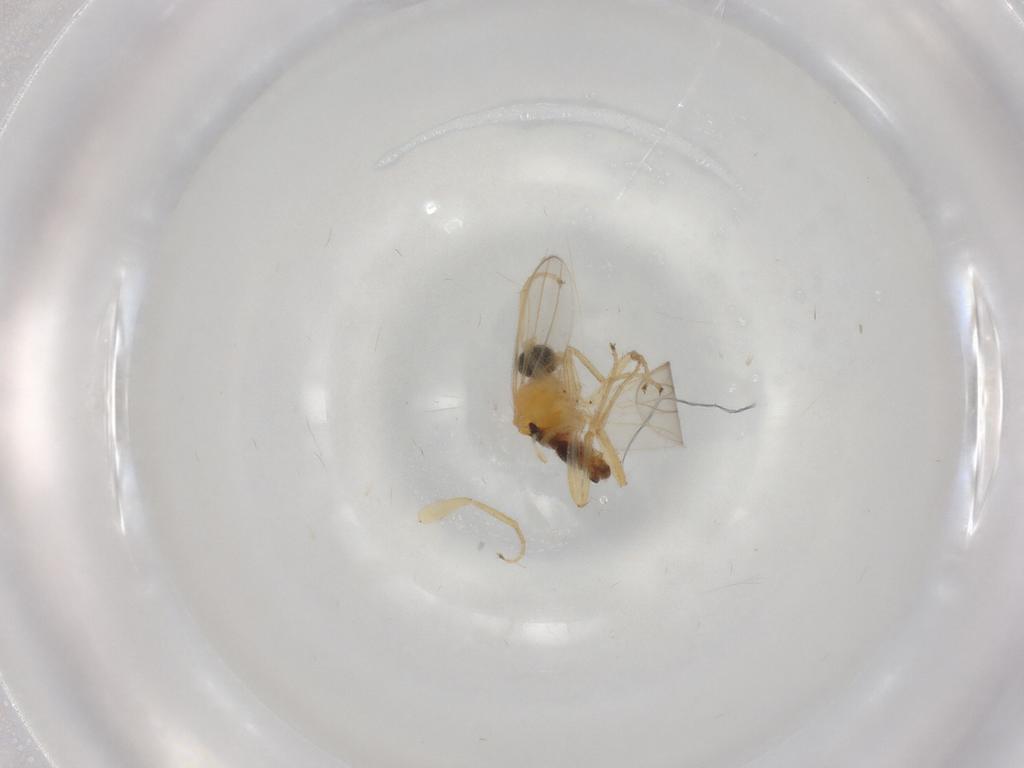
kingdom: Animalia
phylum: Arthropoda
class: Insecta
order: Diptera
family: Hybotidae
